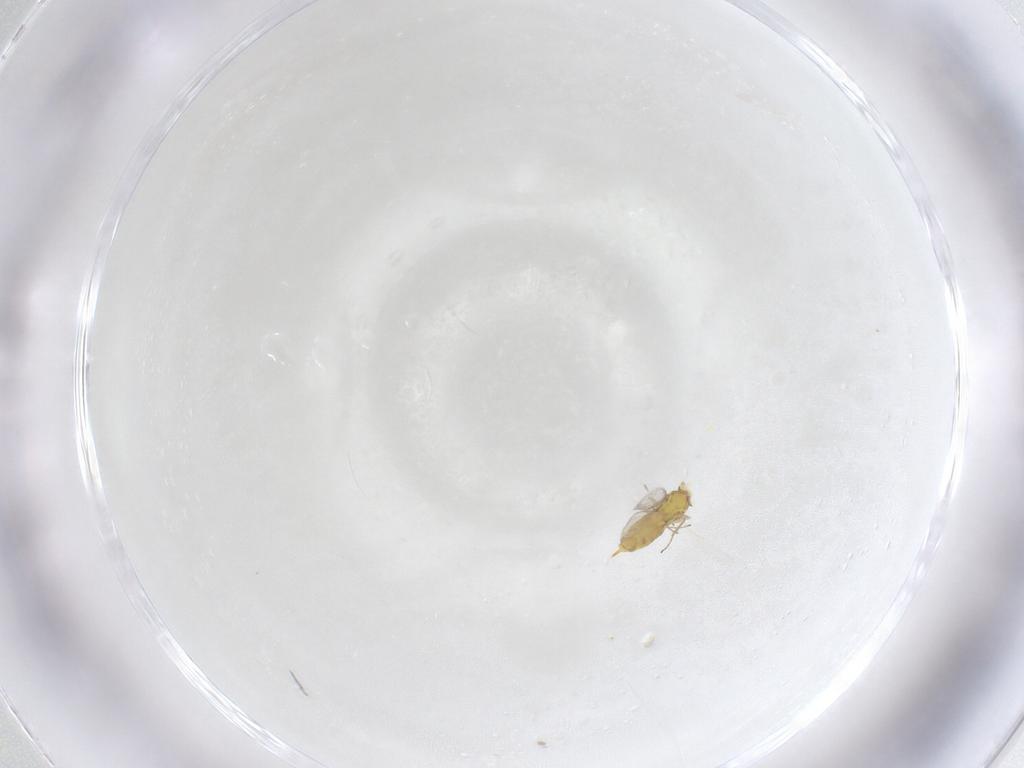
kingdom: Animalia
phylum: Arthropoda
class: Insecta
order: Hymenoptera
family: Aphelinidae
